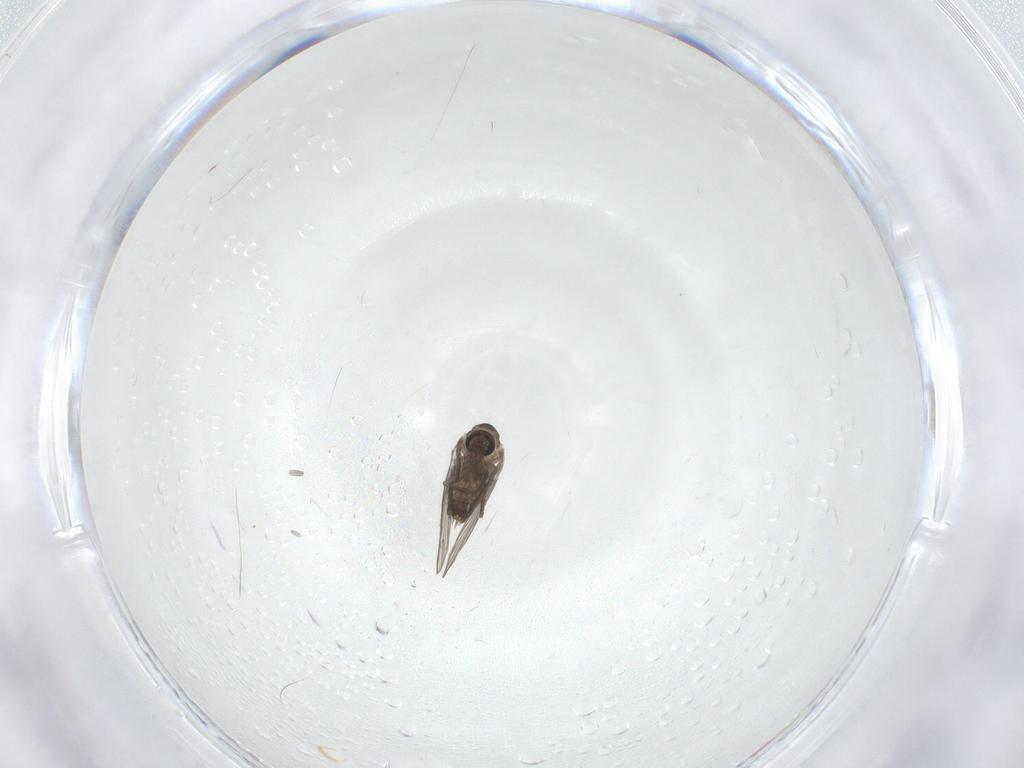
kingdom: Animalia
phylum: Arthropoda
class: Insecta
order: Diptera
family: Psychodidae
